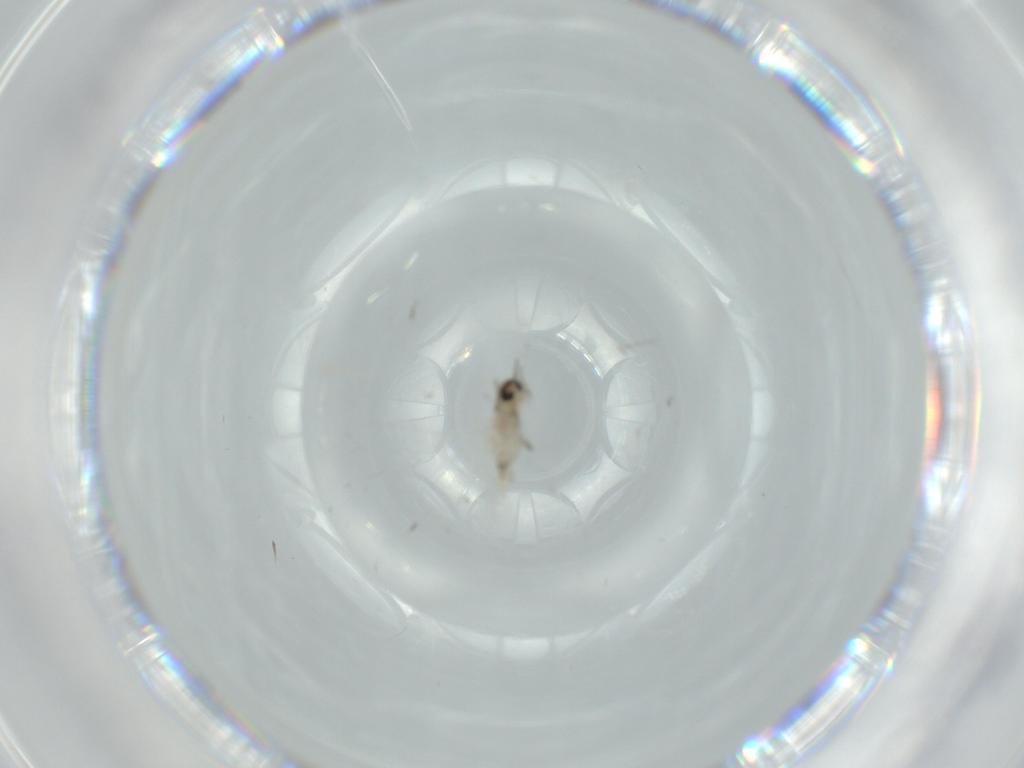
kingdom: Animalia
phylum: Arthropoda
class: Insecta
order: Diptera
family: Dolichopodidae
